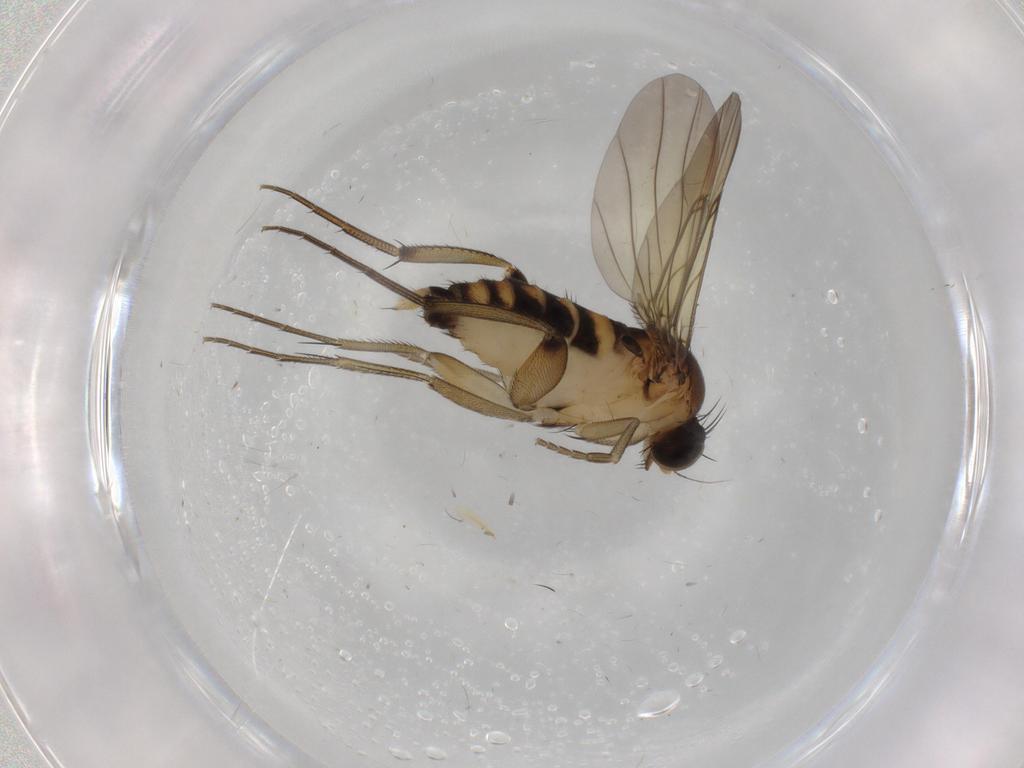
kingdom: Animalia
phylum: Arthropoda
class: Insecta
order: Diptera
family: Phoridae
